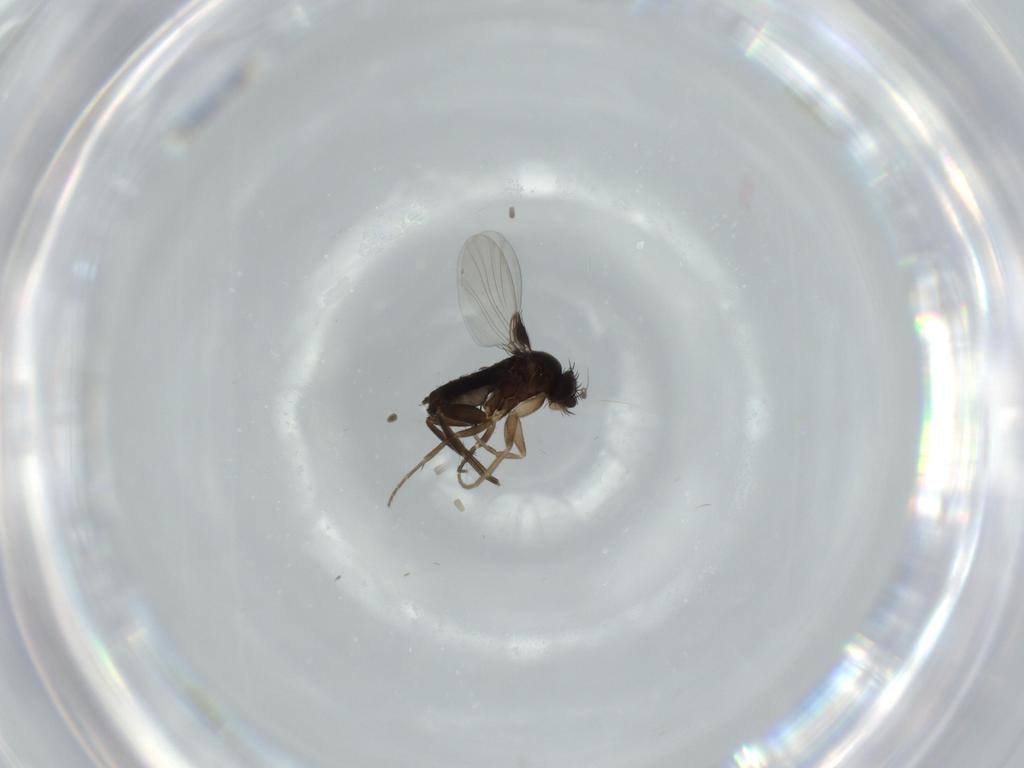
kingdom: Animalia
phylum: Arthropoda
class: Insecta
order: Diptera
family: Phoridae
